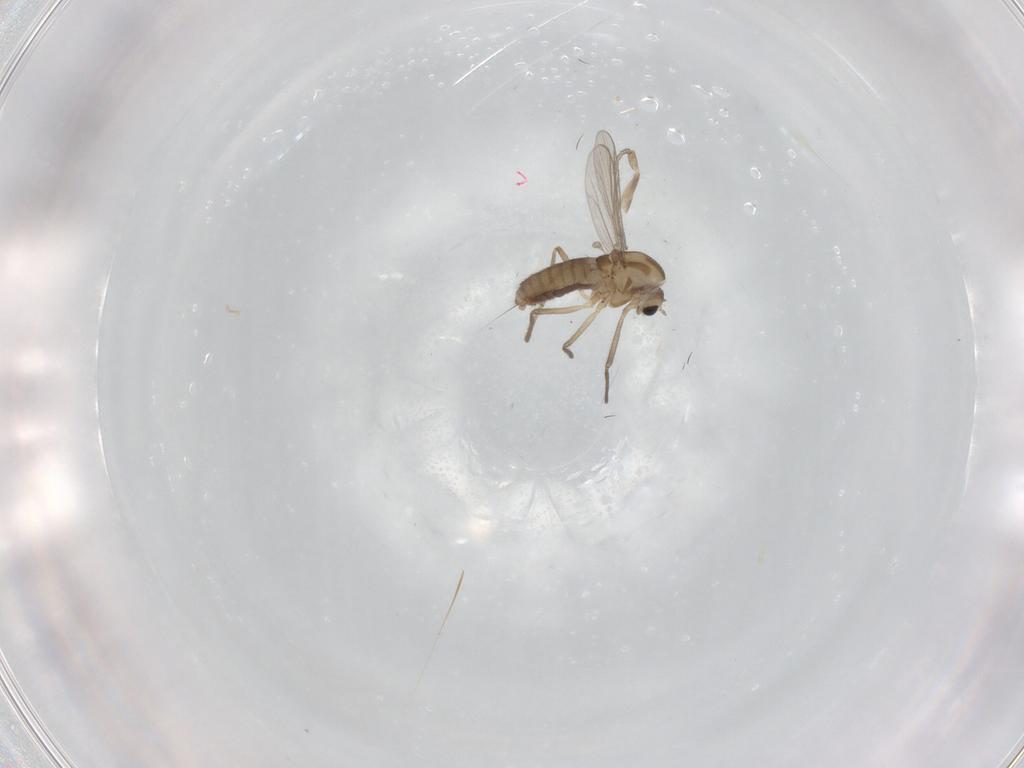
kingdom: Animalia
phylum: Arthropoda
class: Insecta
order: Diptera
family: Chironomidae
